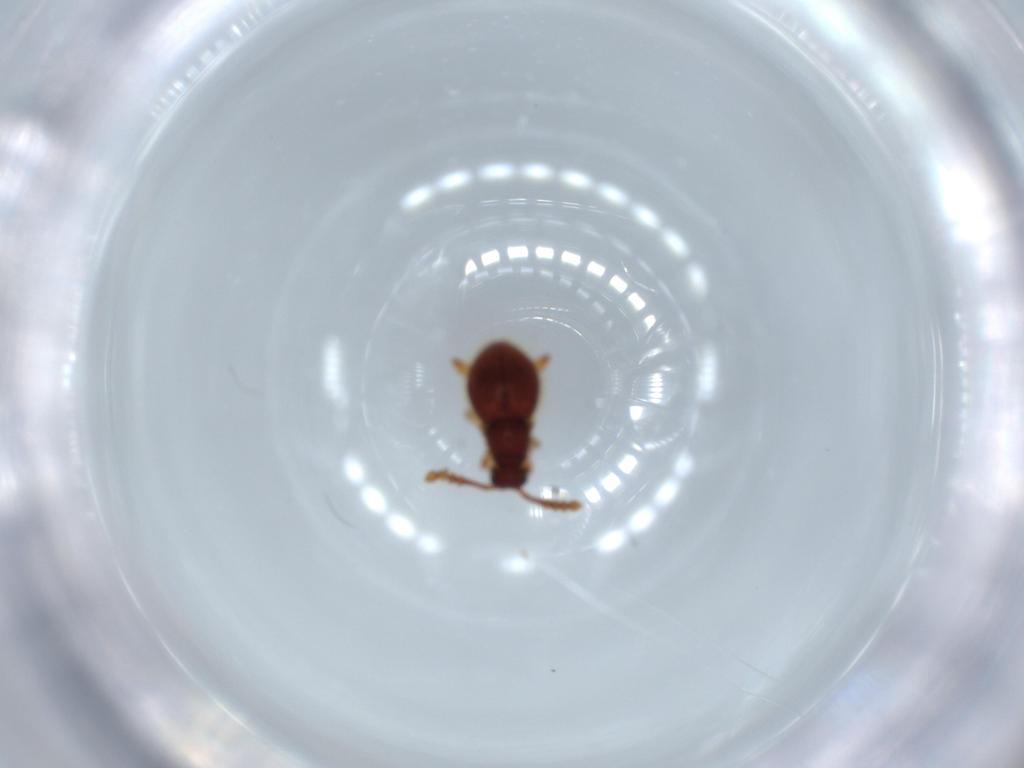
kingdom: Animalia
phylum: Arthropoda
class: Insecta
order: Coleoptera
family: Staphylinidae
